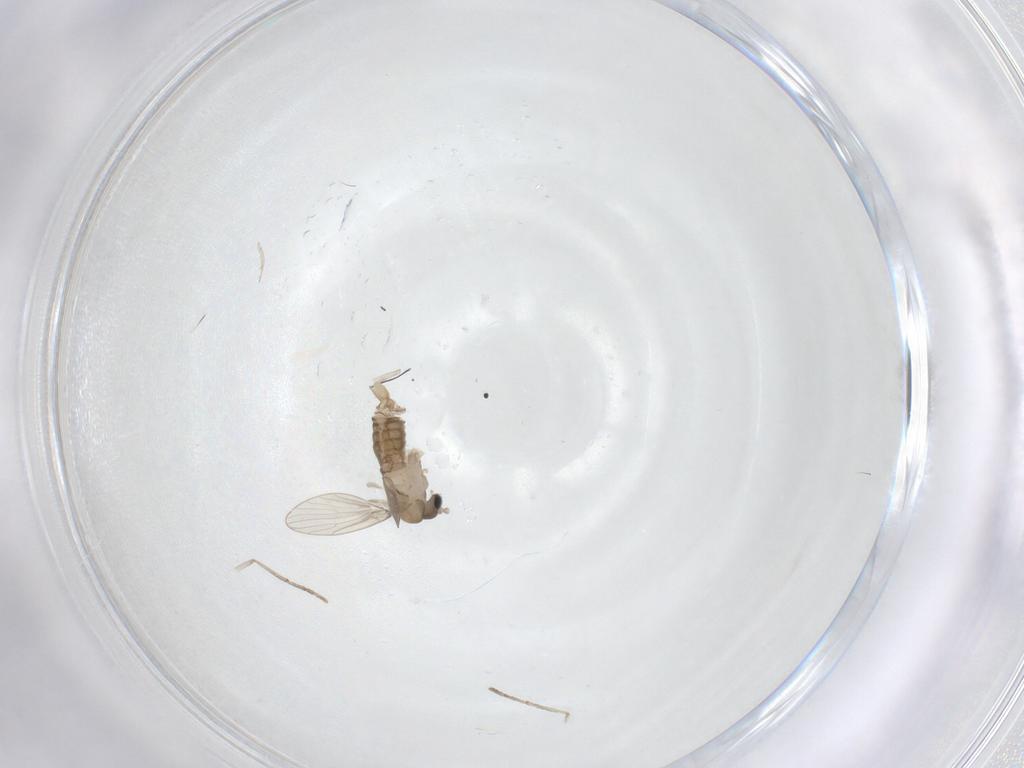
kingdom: Animalia
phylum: Arthropoda
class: Insecta
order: Diptera
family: Psychodidae
